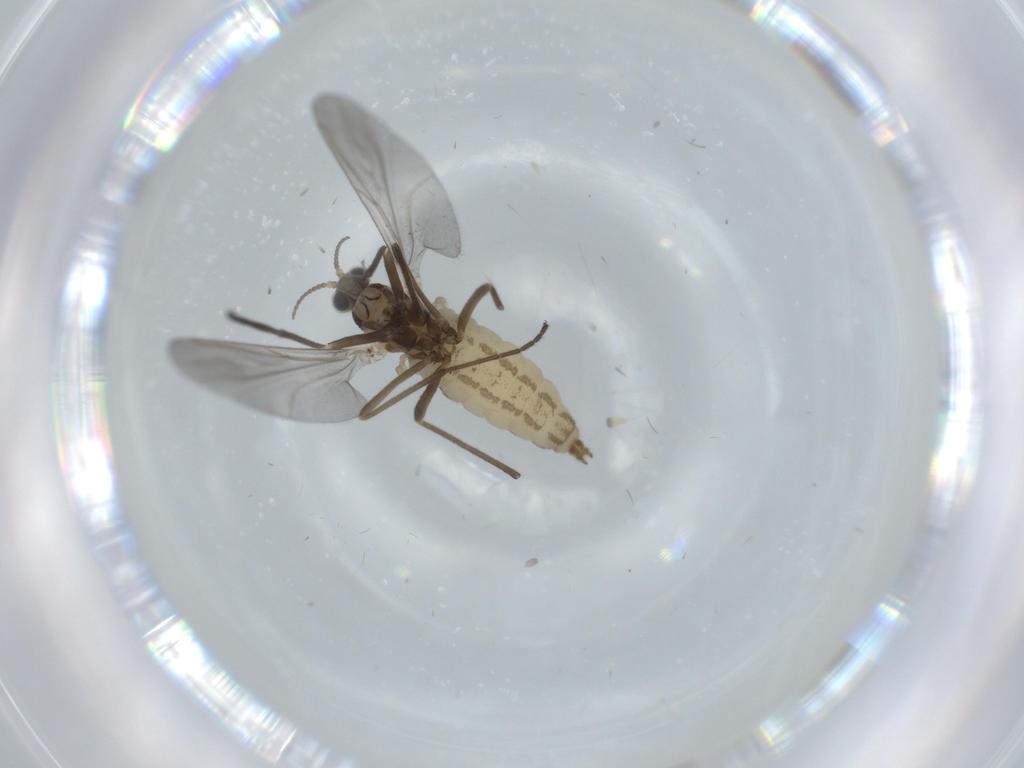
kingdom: Animalia
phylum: Arthropoda
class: Insecta
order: Diptera
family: Cecidomyiidae
